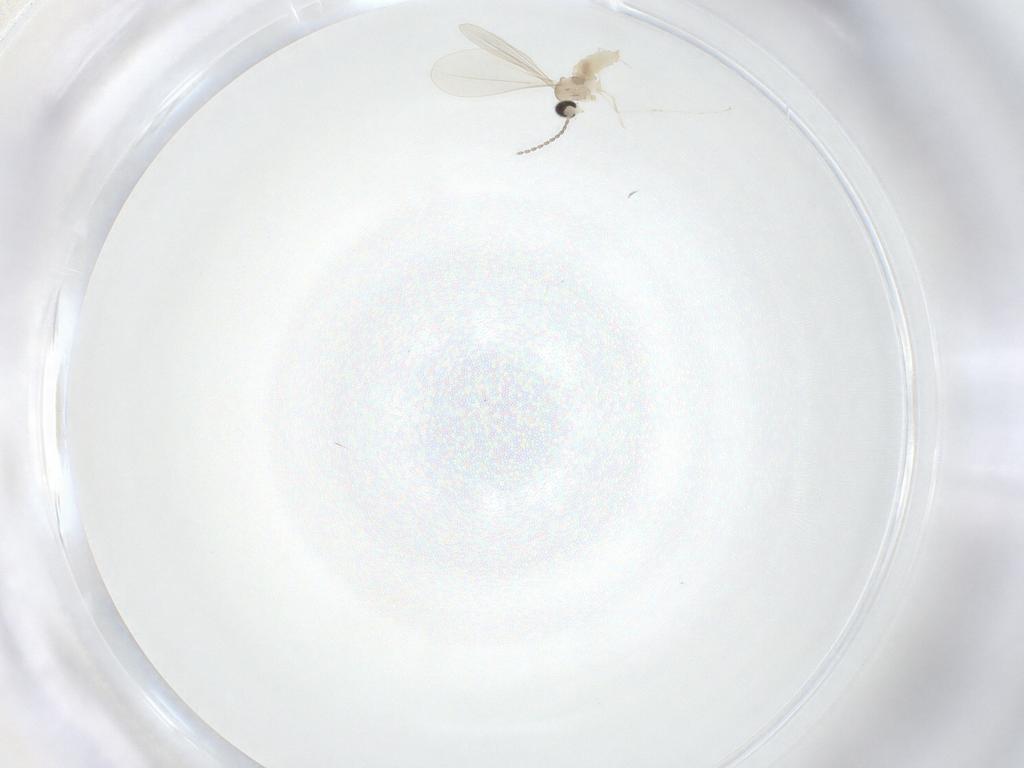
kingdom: Animalia
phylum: Arthropoda
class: Insecta
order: Diptera
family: Cecidomyiidae
